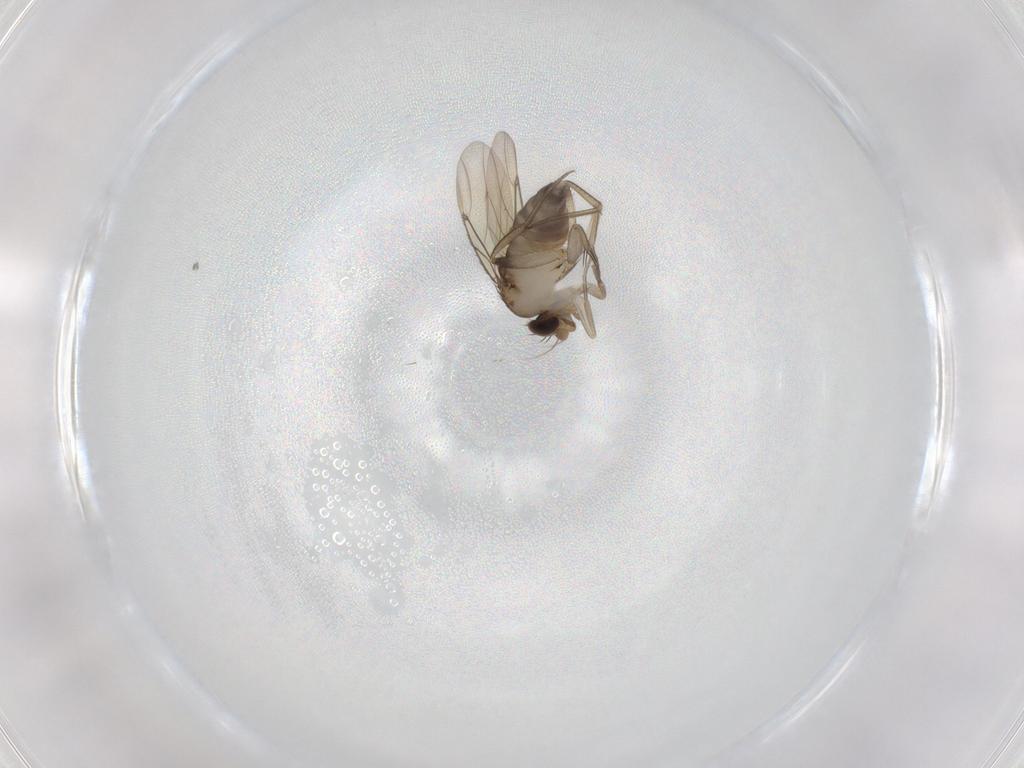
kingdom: Animalia
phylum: Arthropoda
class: Insecta
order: Diptera
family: Phoridae
